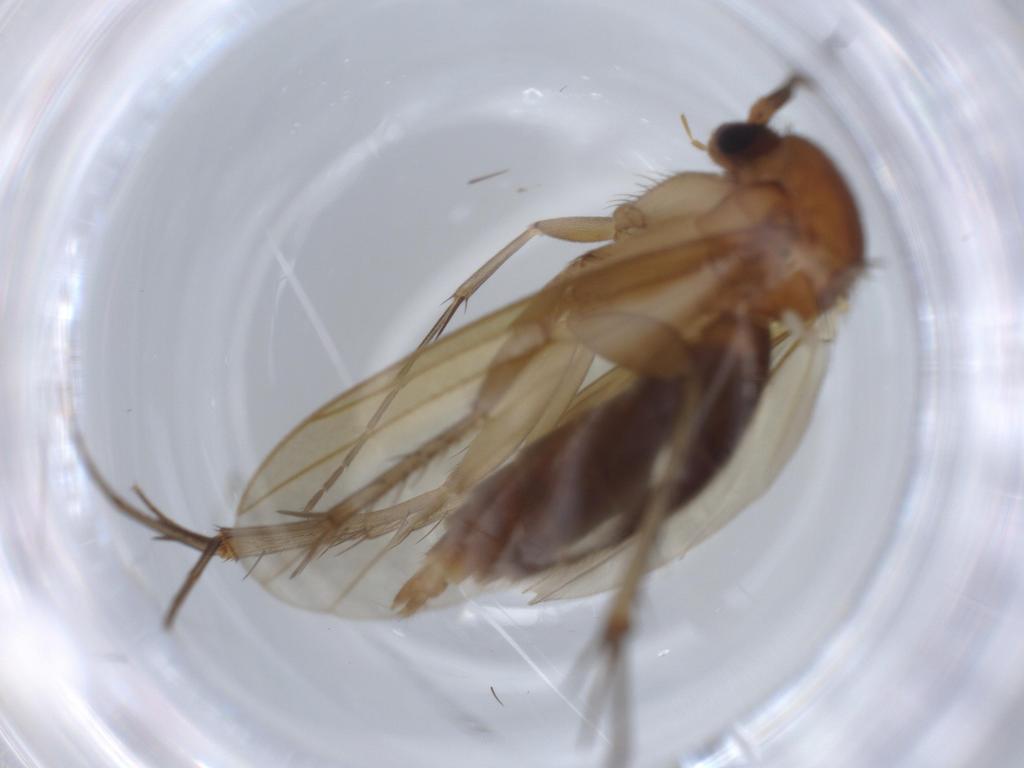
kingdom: Animalia
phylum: Arthropoda
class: Insecta
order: Diptera
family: Mycetophilidae
